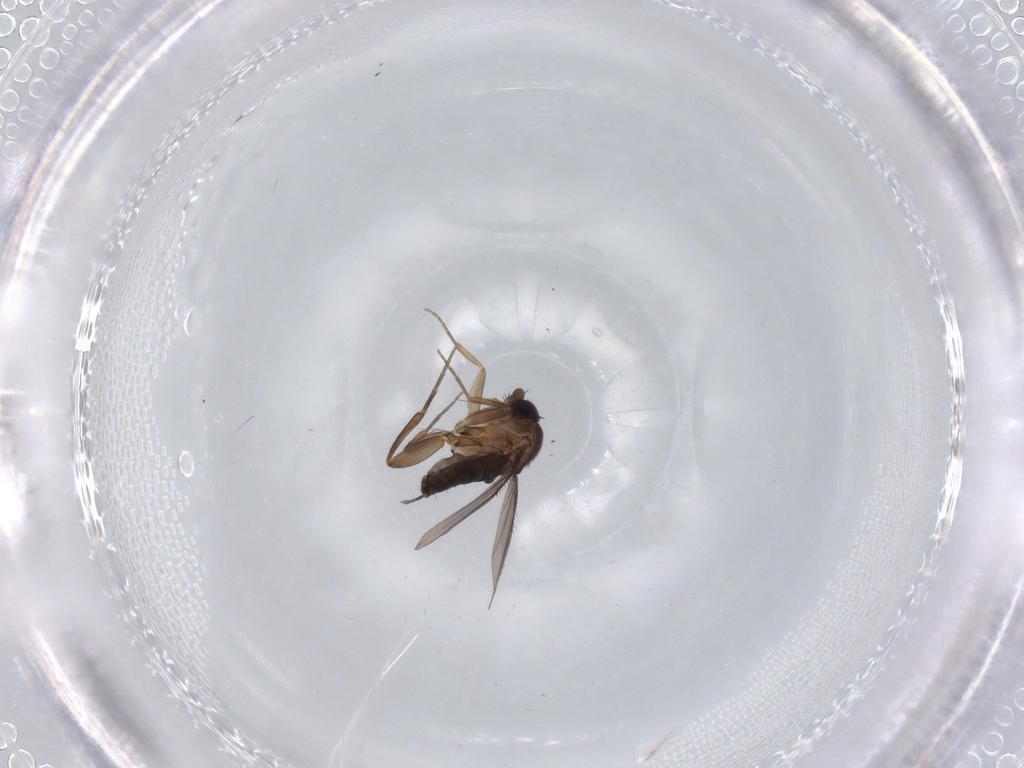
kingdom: Animalia
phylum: Arthropoda
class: Insecta
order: Diptera
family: Phoridae
